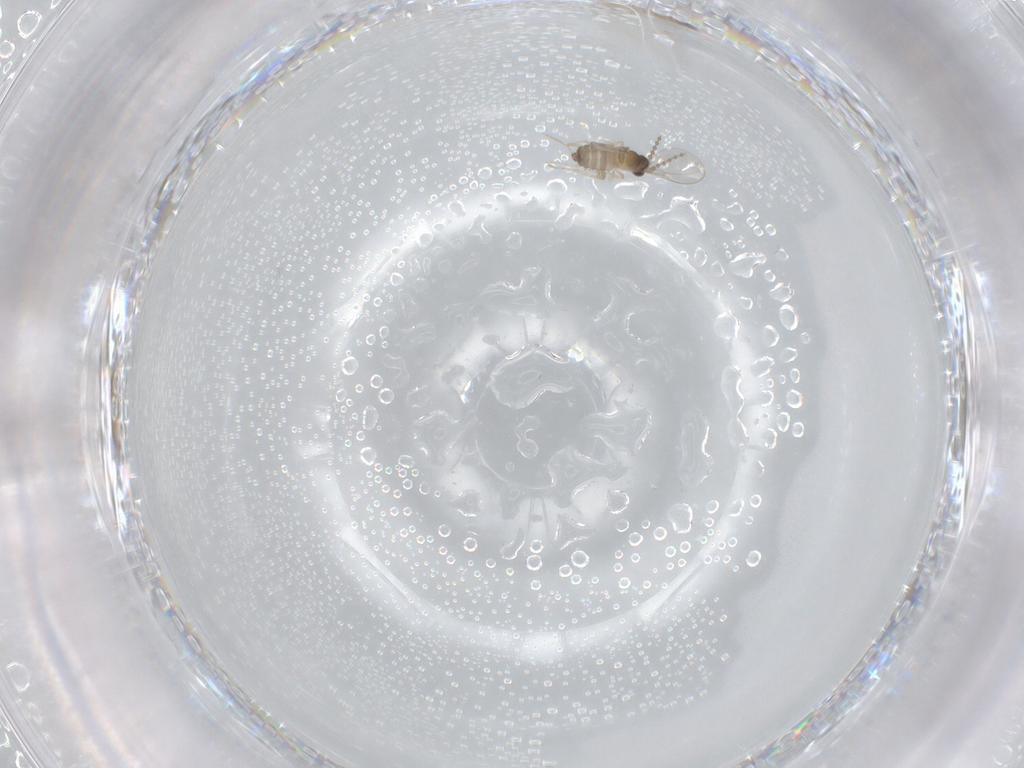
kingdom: Animalia
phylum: Arthropoda
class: Insecta
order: Diptera
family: Cecidomyiidae
